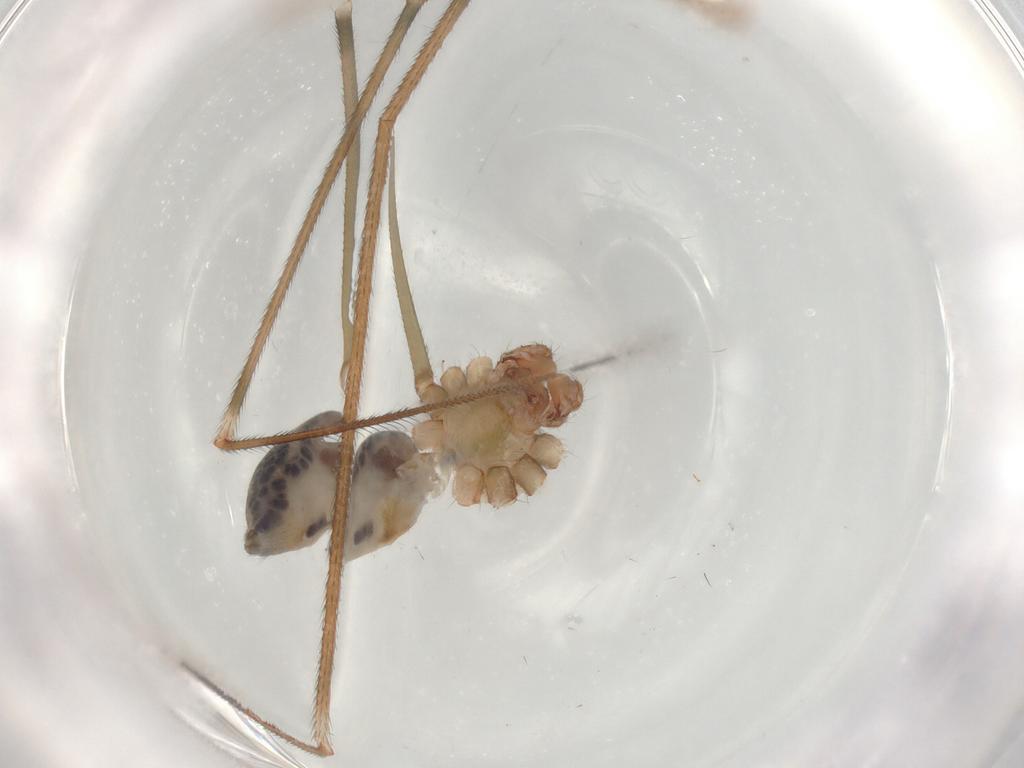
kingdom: Animalia
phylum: Arthropoda
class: Arachnida
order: Araneae
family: Pholcidae
